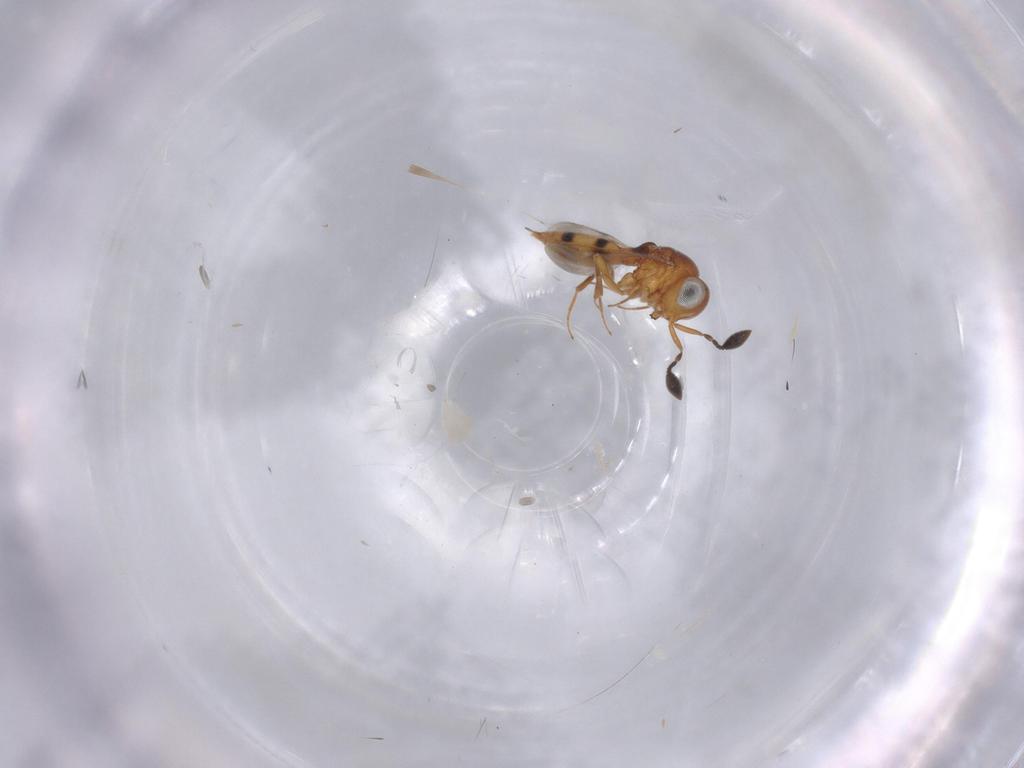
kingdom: Animalia
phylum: Arthropoda
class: Insecta
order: Hymenoptera
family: Scelionidae
